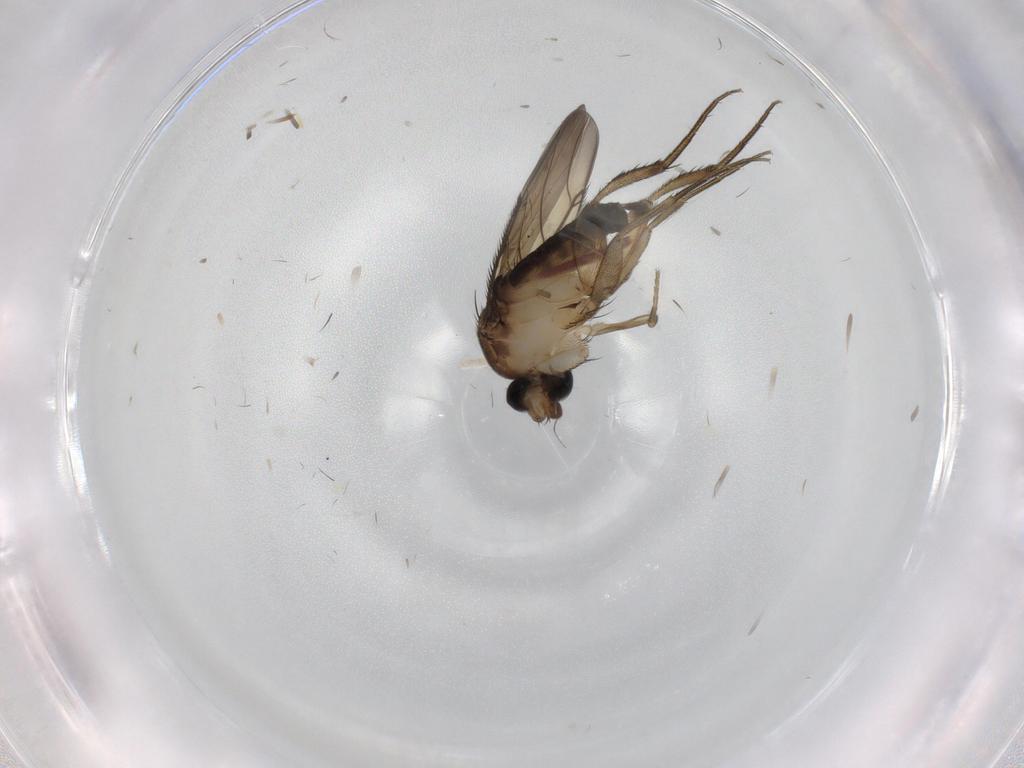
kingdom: Animalia
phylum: Arthropoda
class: Insecta
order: Diptera
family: Phoridae
